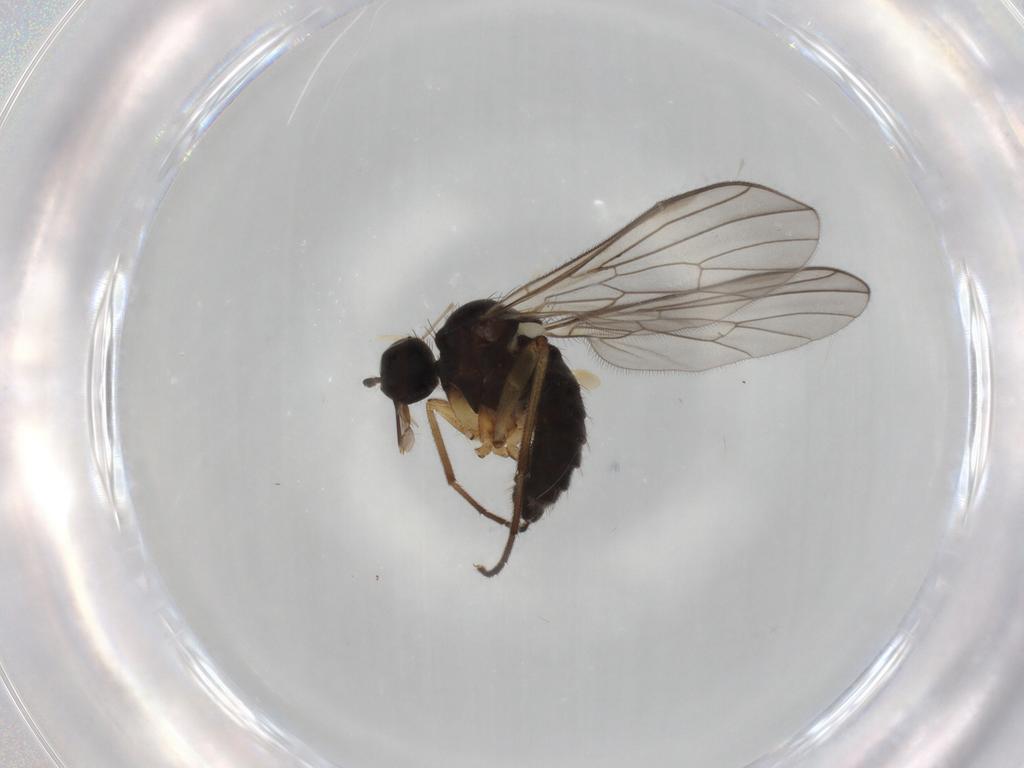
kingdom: Animalia
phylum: Arthropoda
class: Insecta
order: Diptera
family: Empididae
